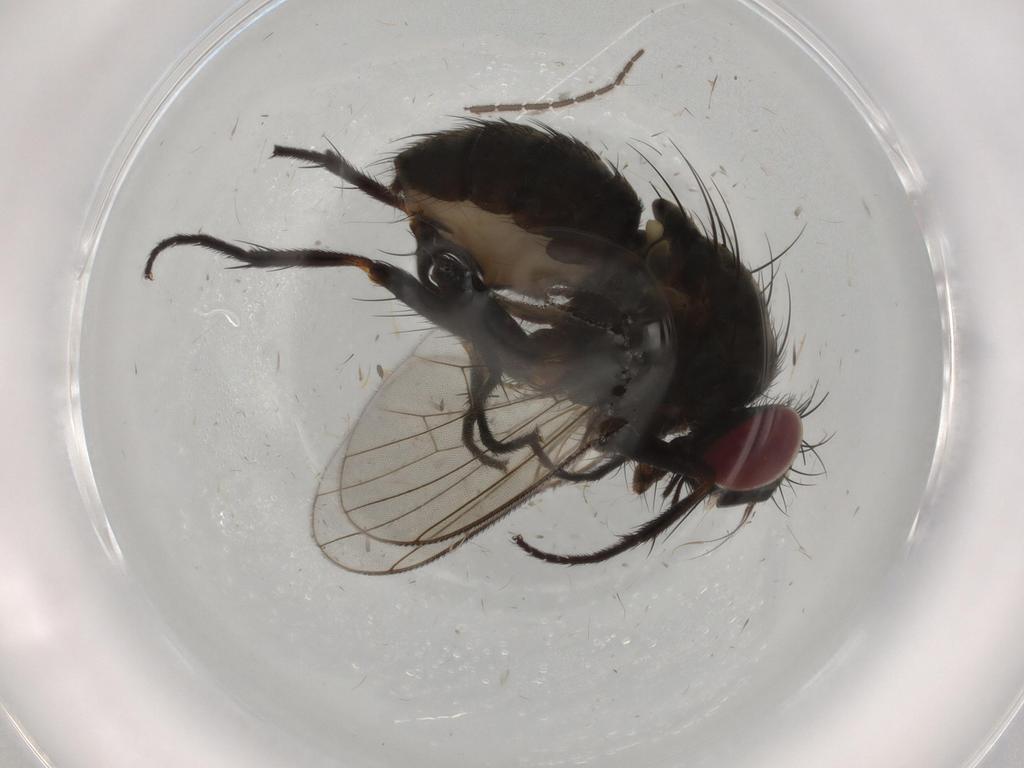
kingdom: Animalia
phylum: Arthropoda
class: Insecta
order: Diptera
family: Muscidae
